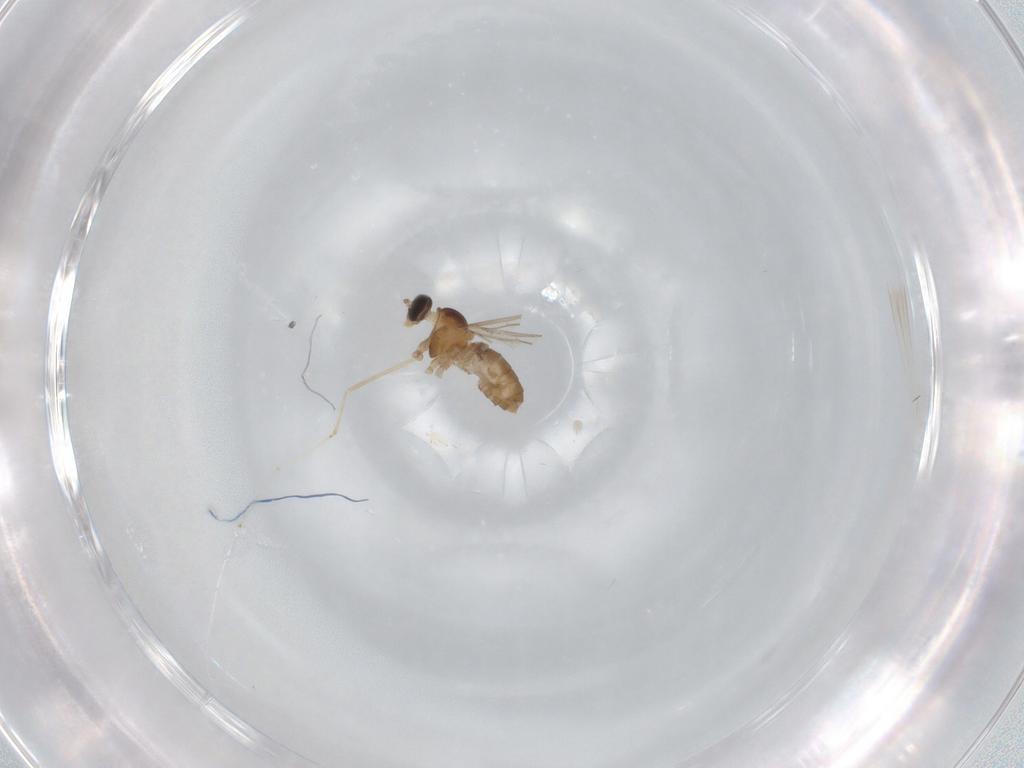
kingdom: Animalia
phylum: Arthropoda
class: Insecta
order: Diptera
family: Cecidomyiidae
